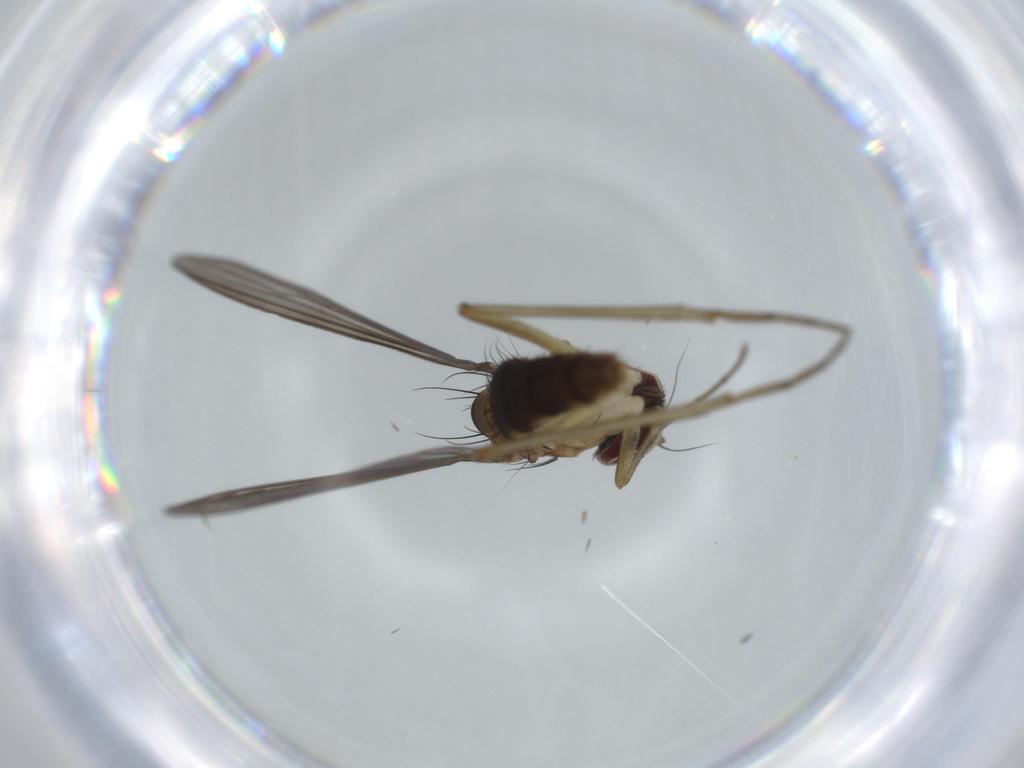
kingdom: Animalia
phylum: Arthropoda
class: Insecta
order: Diptera
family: Dolichopodidae
